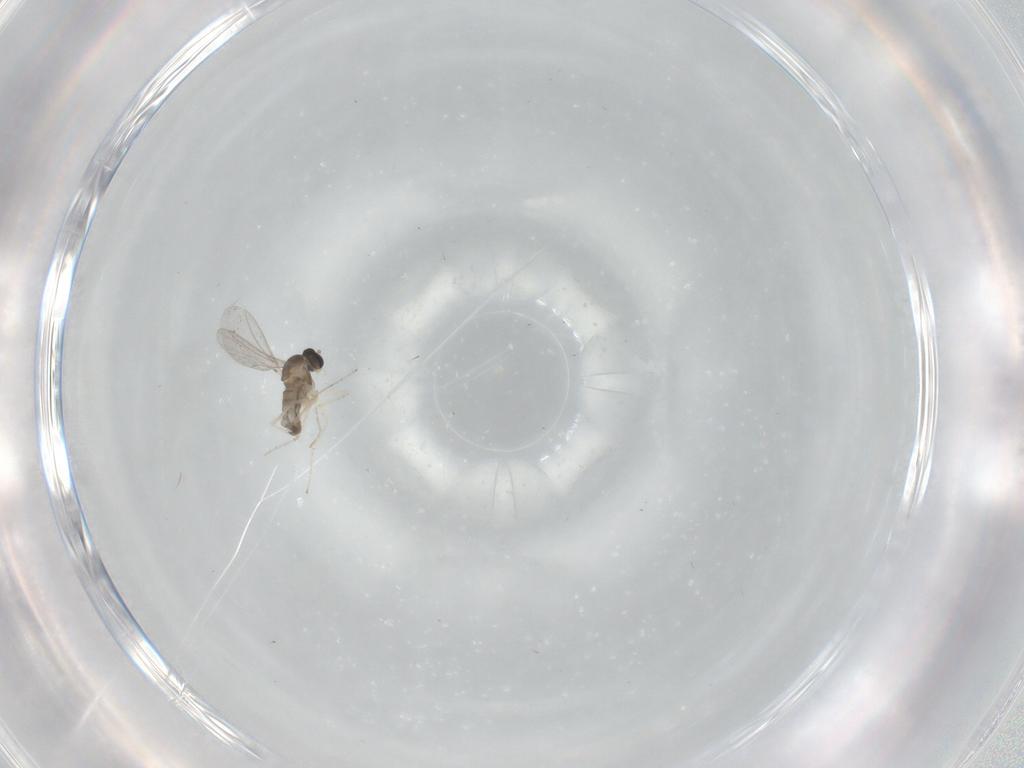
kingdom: Animalia
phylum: Arthropoda
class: Insecta
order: Diptera
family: Cecidomyiidae
